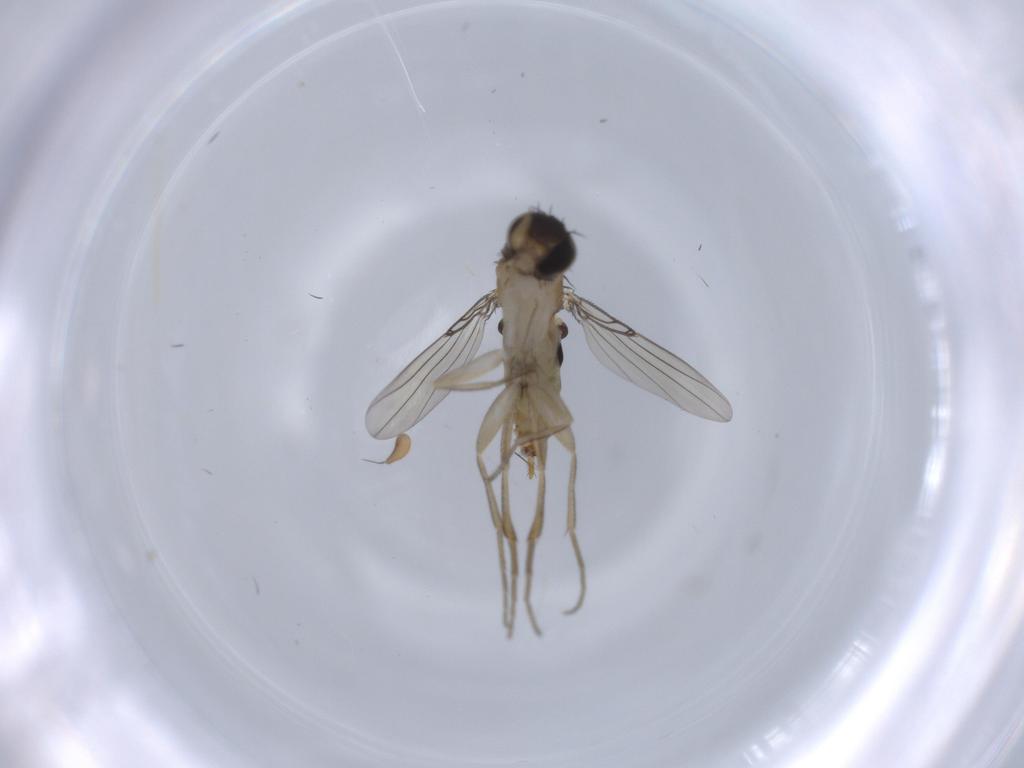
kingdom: Animalia
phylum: Arthropoda
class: Insecta
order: Diptera
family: Phoridae
